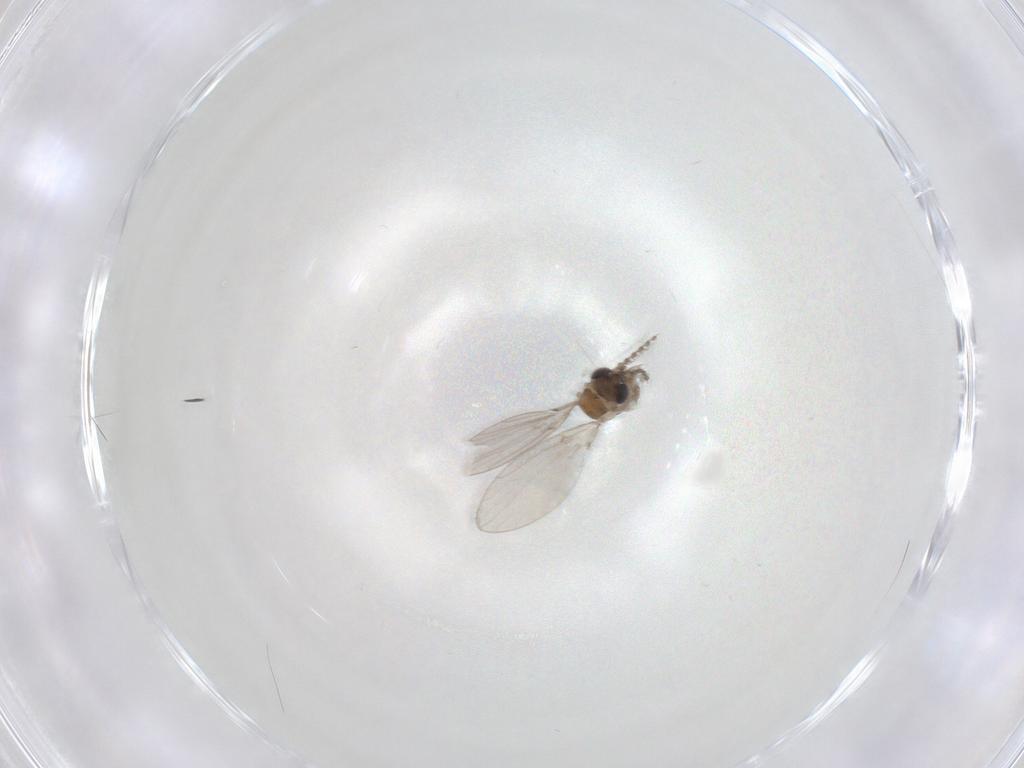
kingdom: Animalia
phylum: Arthropoda
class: Insecta
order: Diptera
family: Psychodidae
